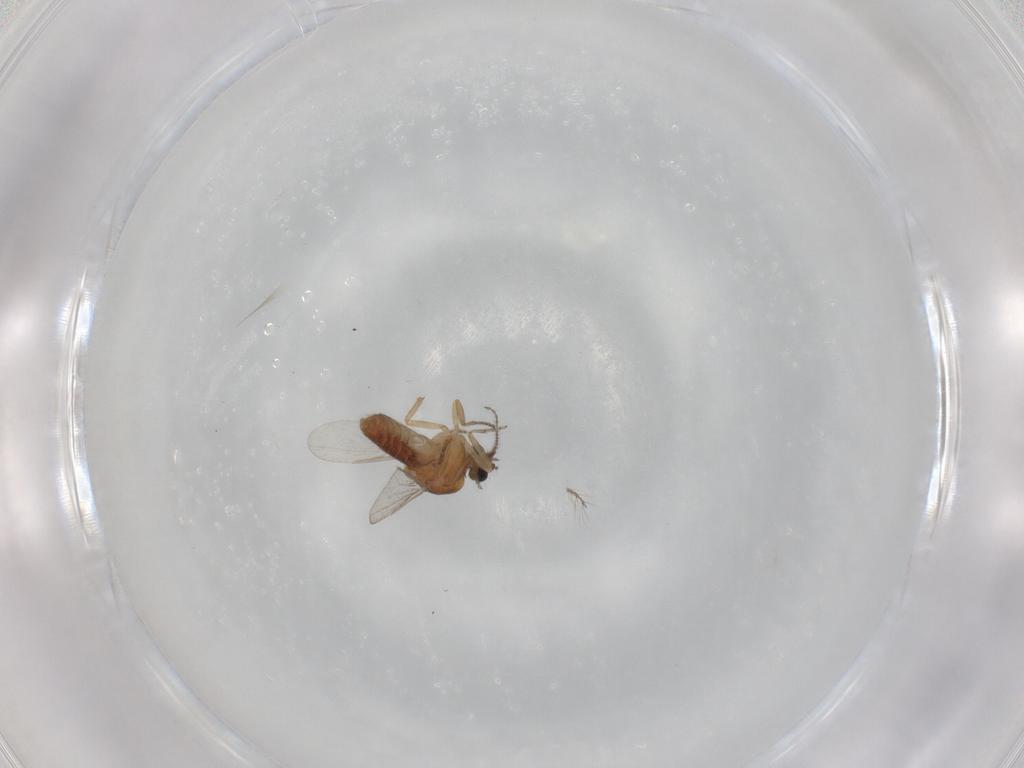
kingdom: Animalia
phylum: Arthropoda
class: Insecta
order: Diptera
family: Ceratopogonidae
